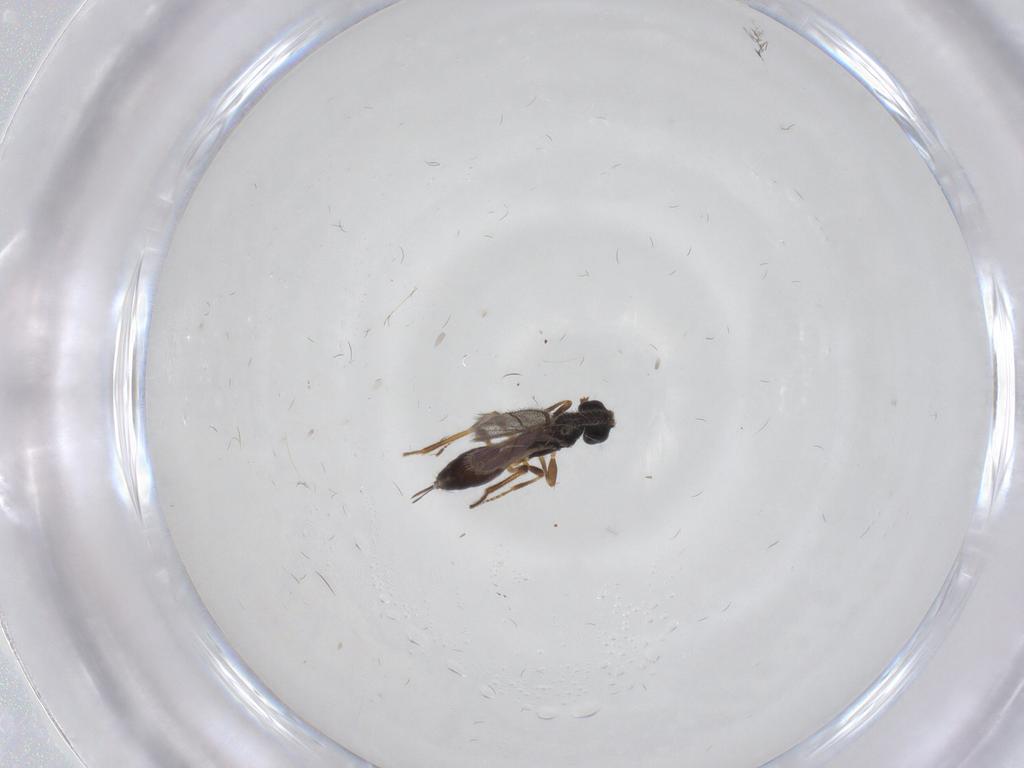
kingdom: Animalia
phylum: Arthropoda
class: Insecta
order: Hymenoptera
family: Braconidae
